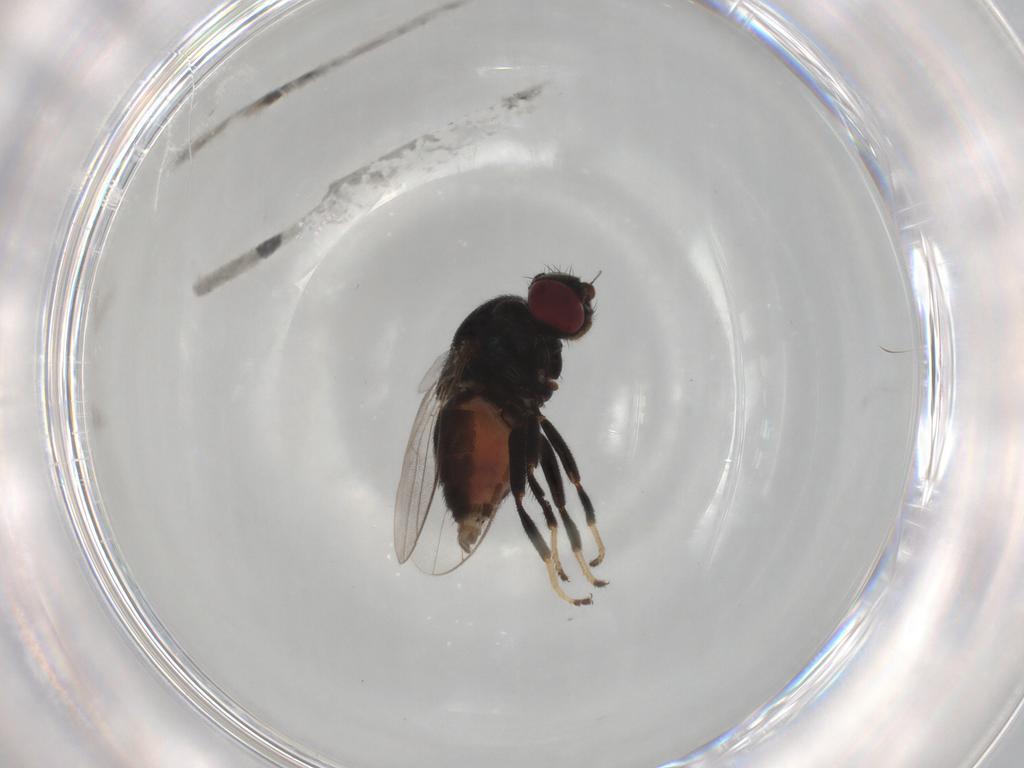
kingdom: Animalia
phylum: Arthropoda
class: Insecta
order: Diptera
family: Chloropidae
